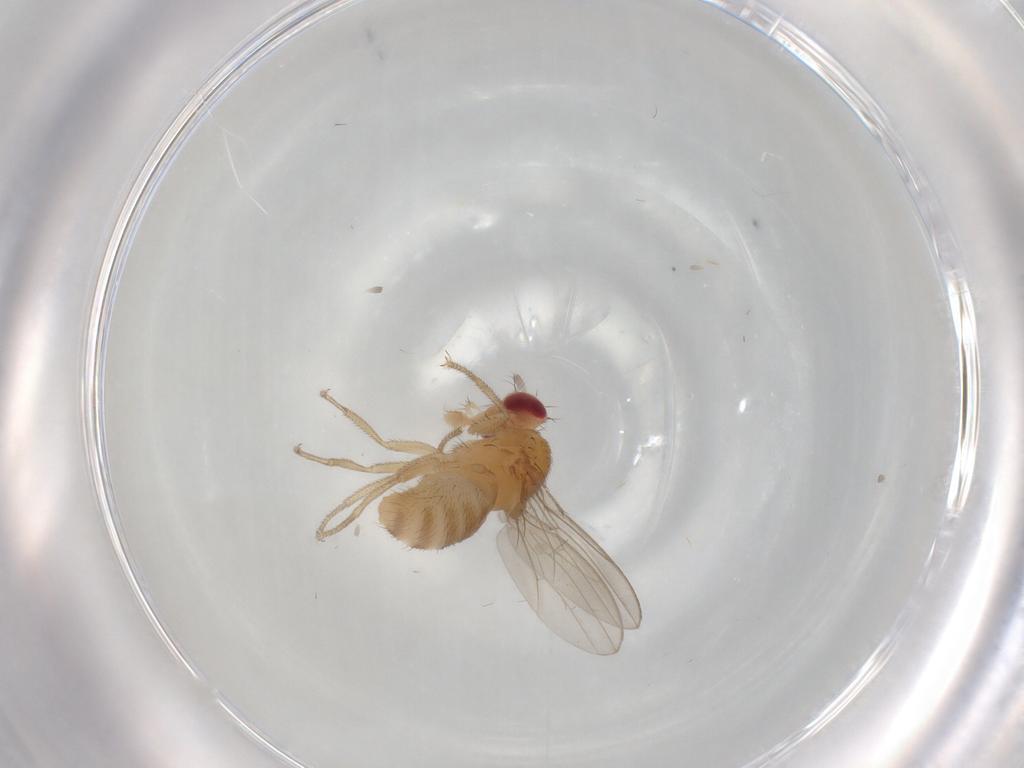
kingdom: Animalia
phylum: Arthropoda
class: Insecta
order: Diptera
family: Drosophilidae
